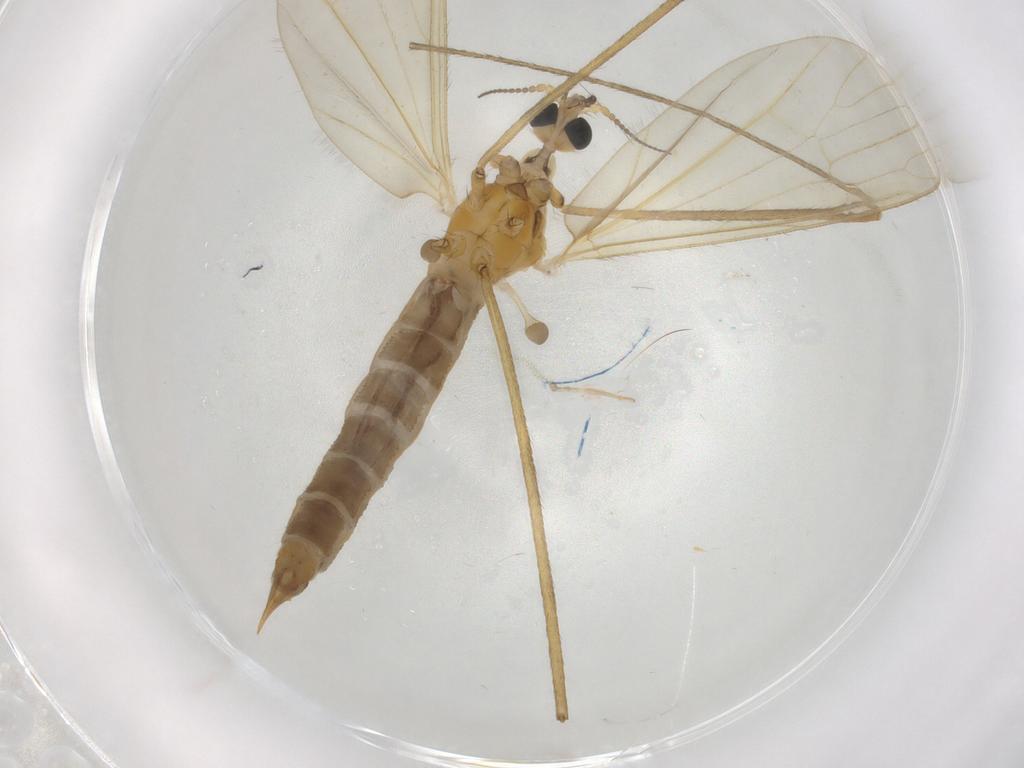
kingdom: Animalia
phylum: Arthropoda
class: Insecta
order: Diptera
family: Limoniidae
